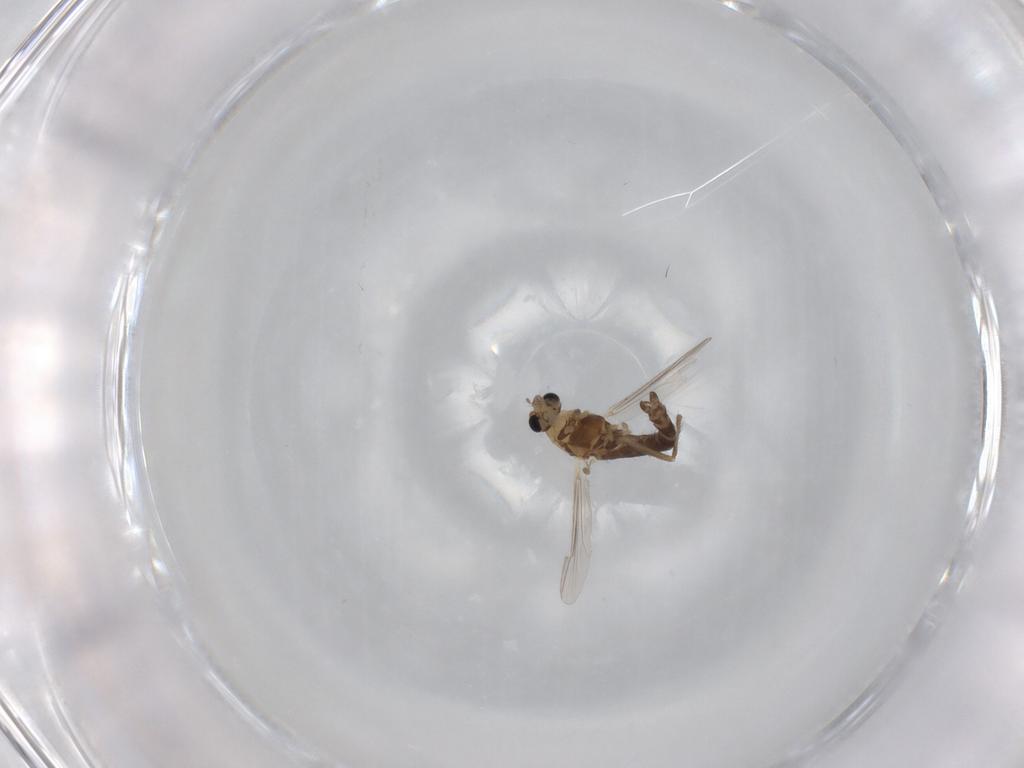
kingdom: Animalia
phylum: Arthropoda
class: Insecta
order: Diptera
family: Chironomidae
